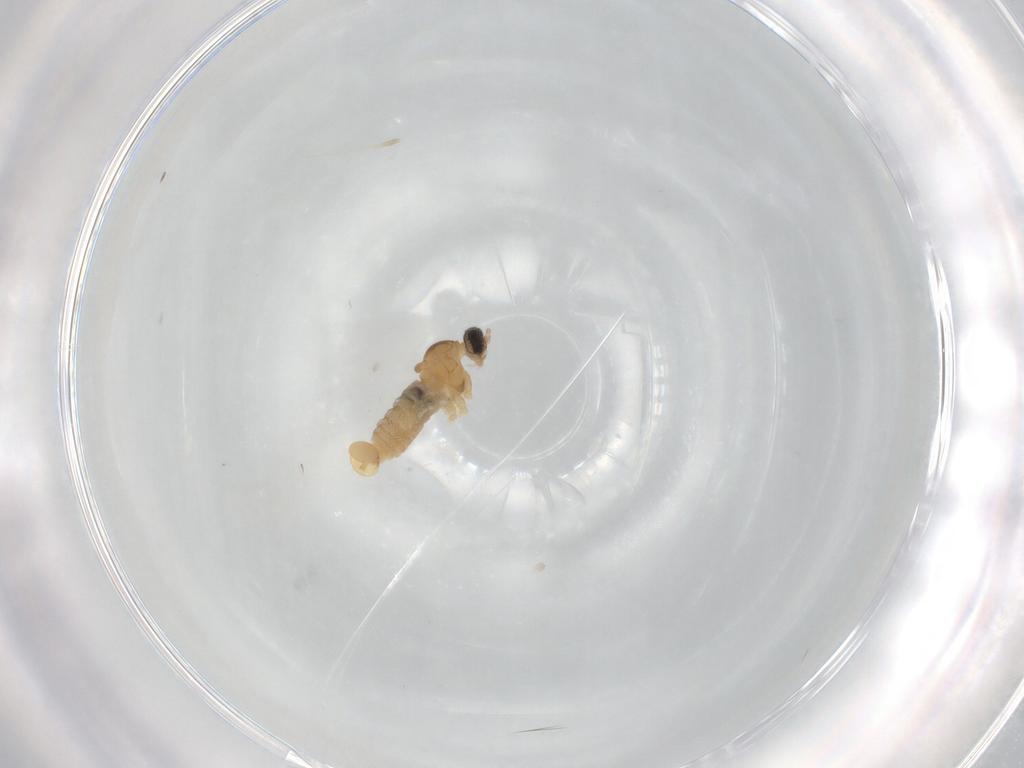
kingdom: Animalia
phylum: Arthropoda
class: Insecta
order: Diptera
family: Cecidomyiidae
